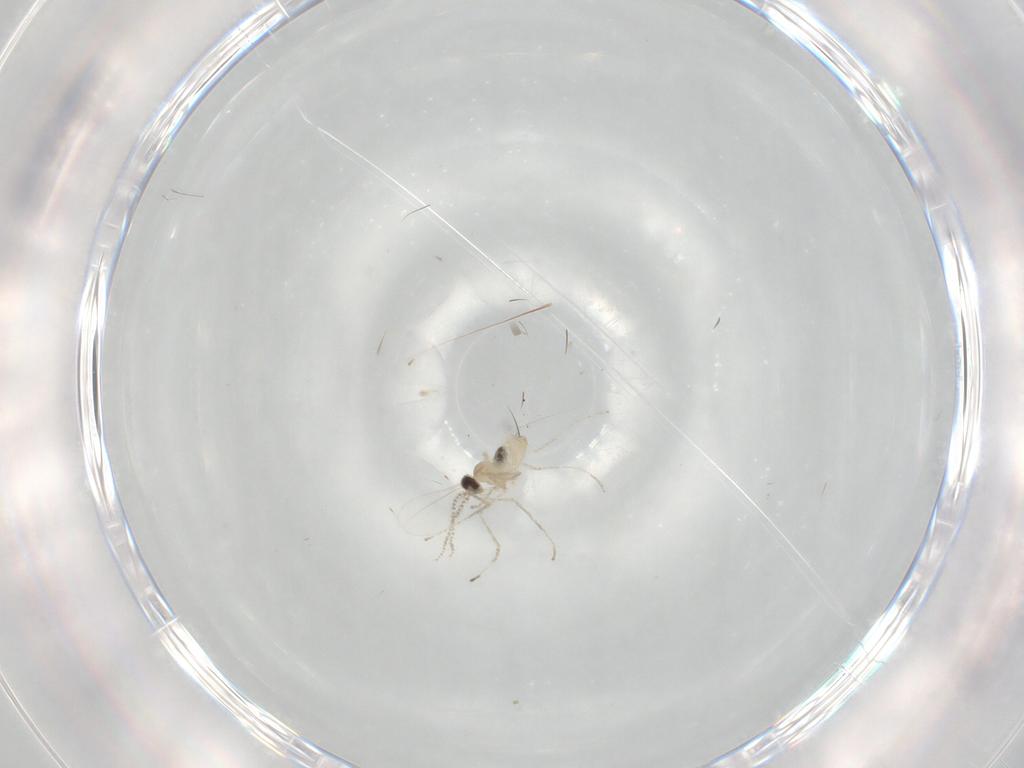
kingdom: Animalia
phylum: Arthropoda
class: Insecta
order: Diptera
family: Cecidomyiidae
